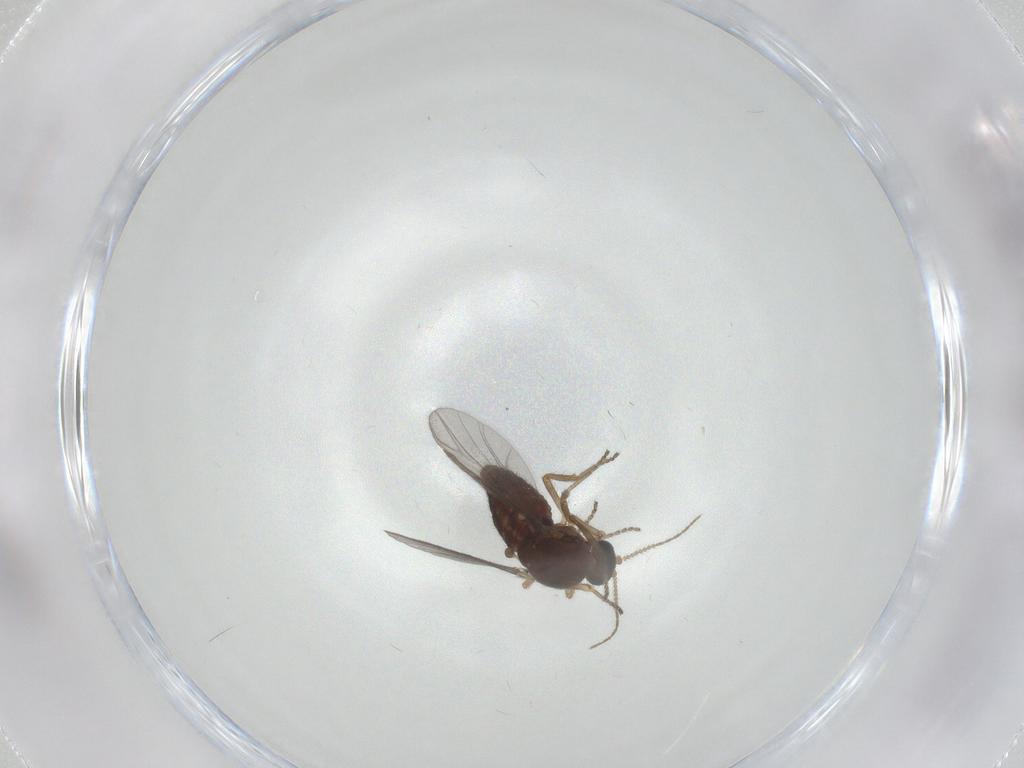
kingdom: Animalia
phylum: Arthropoda
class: Insecta
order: Diptera
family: Ceratopogonidae
